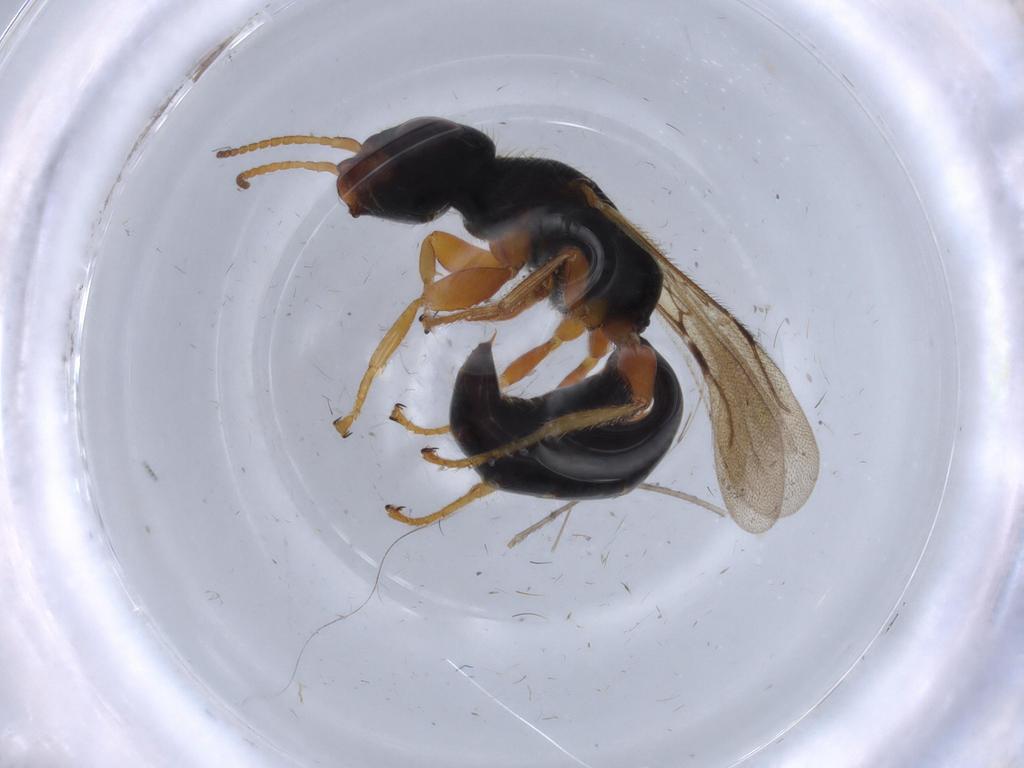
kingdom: Animalia
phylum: Arthropoda
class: Insecta
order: Hymenoptera
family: Bethylidae
